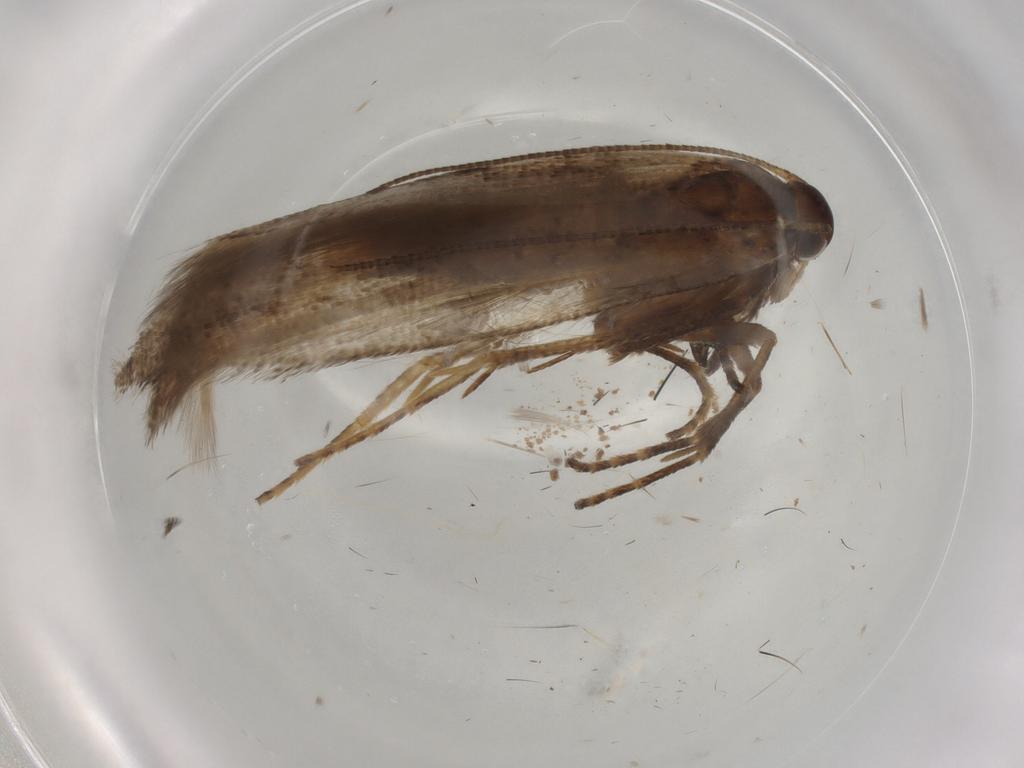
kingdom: Animalia
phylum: Arthropoda
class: Insecta
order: Lepidoptera
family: Gelechiidae
